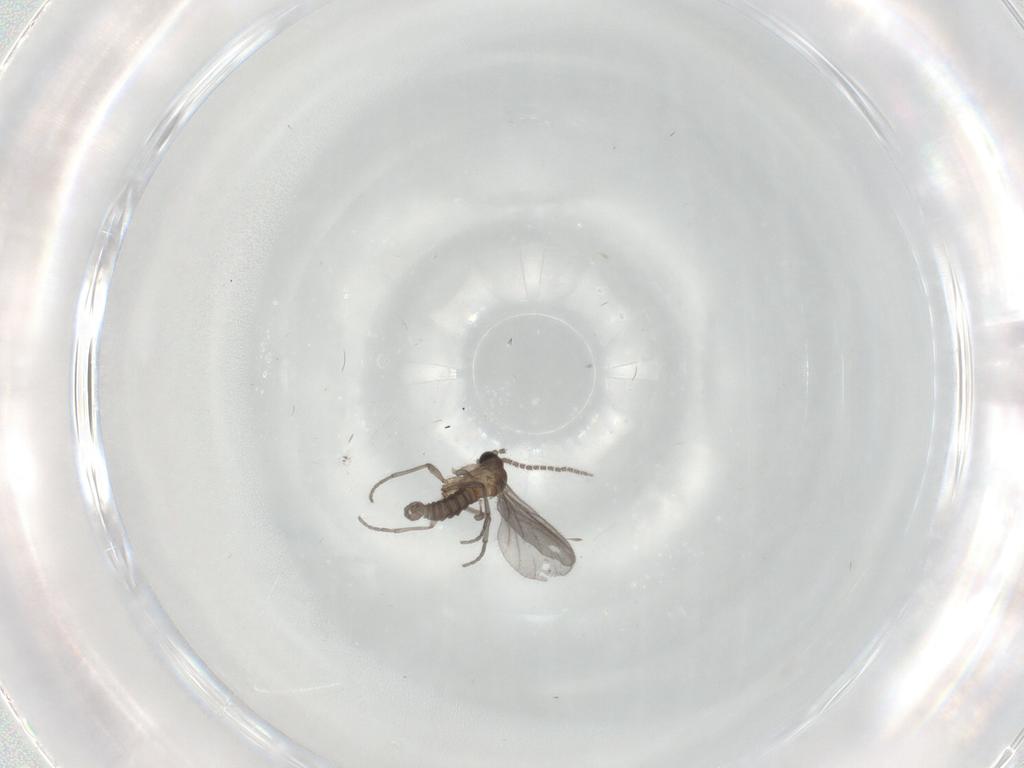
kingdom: Animalia
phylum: Arthropoda
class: Insecta
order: Diptera
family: Sciaridae
